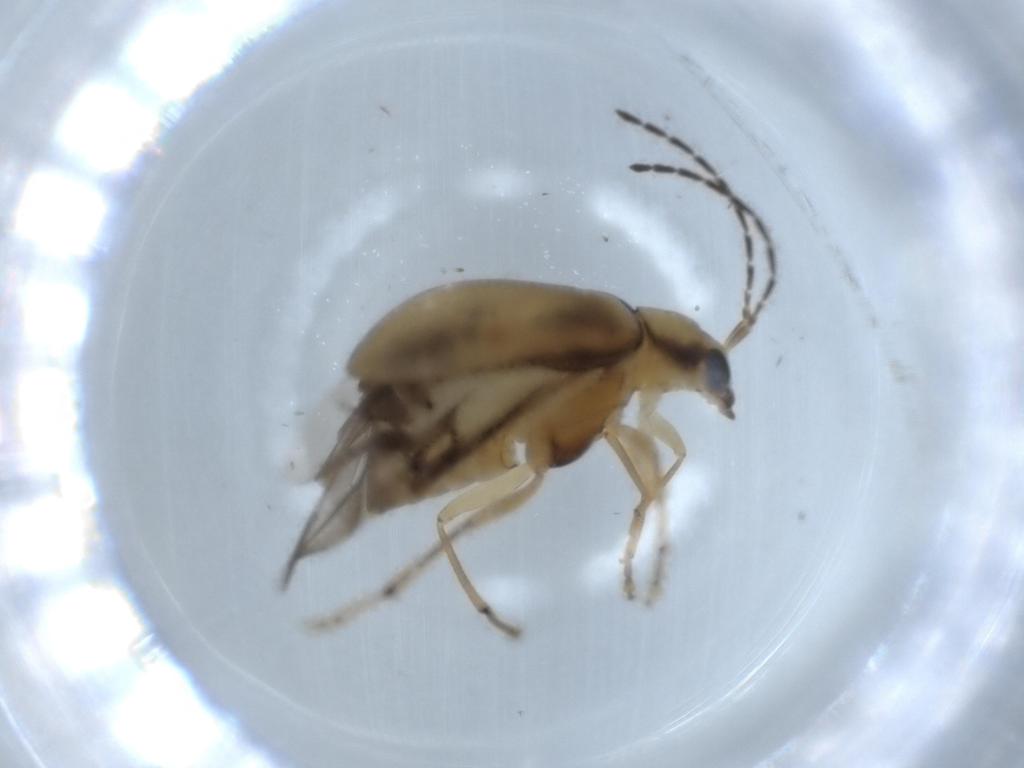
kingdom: Animalia
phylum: Arthropoda
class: Insecta
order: Coleoptera
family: Chrysomelidae
